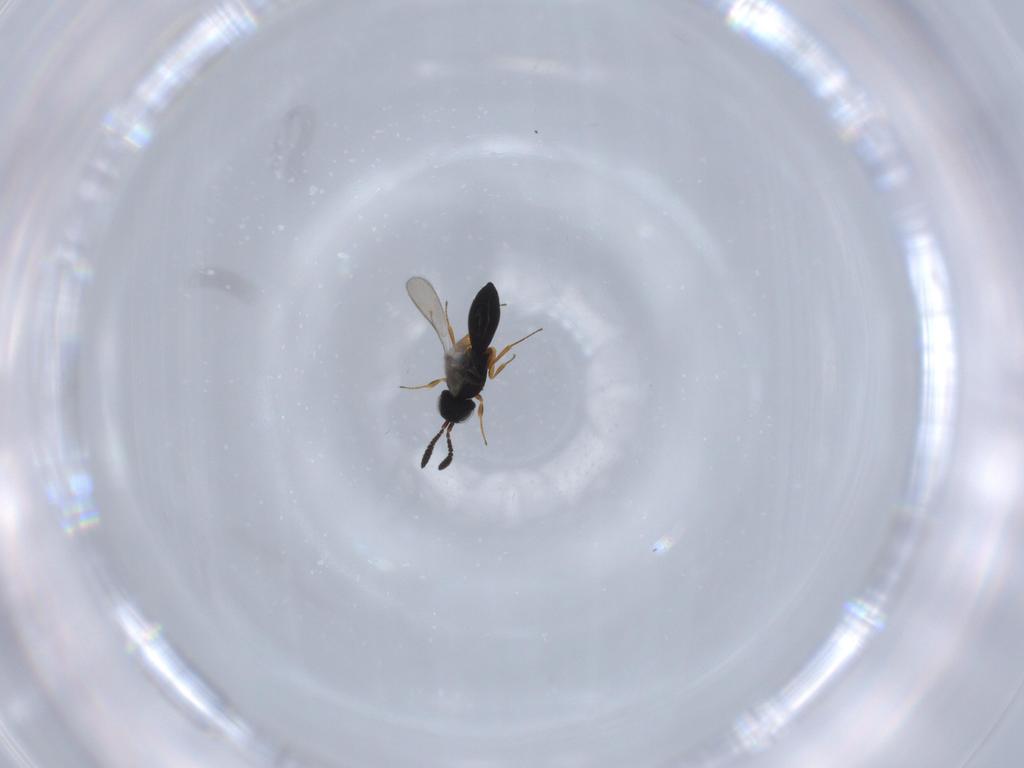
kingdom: Animalia
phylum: Arthropoda
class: Insecta
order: Hymenoptera
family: Scelionidae
